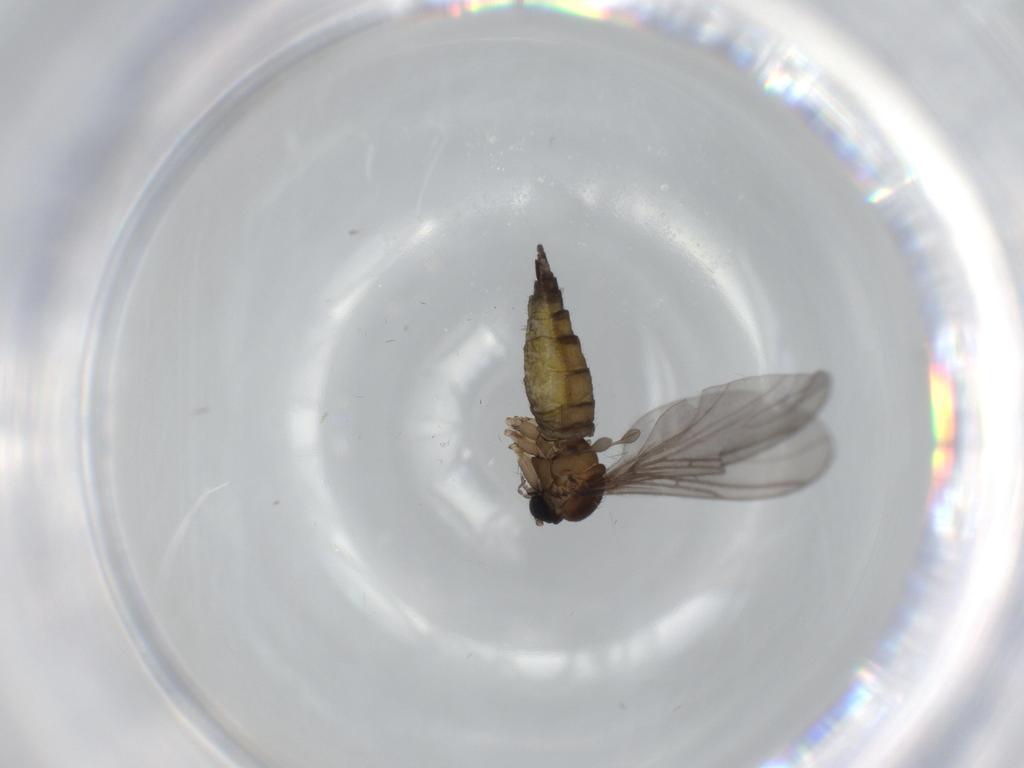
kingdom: Animalia
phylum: Arthropoda
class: Insecta
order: Diptera
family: Sciaridae
